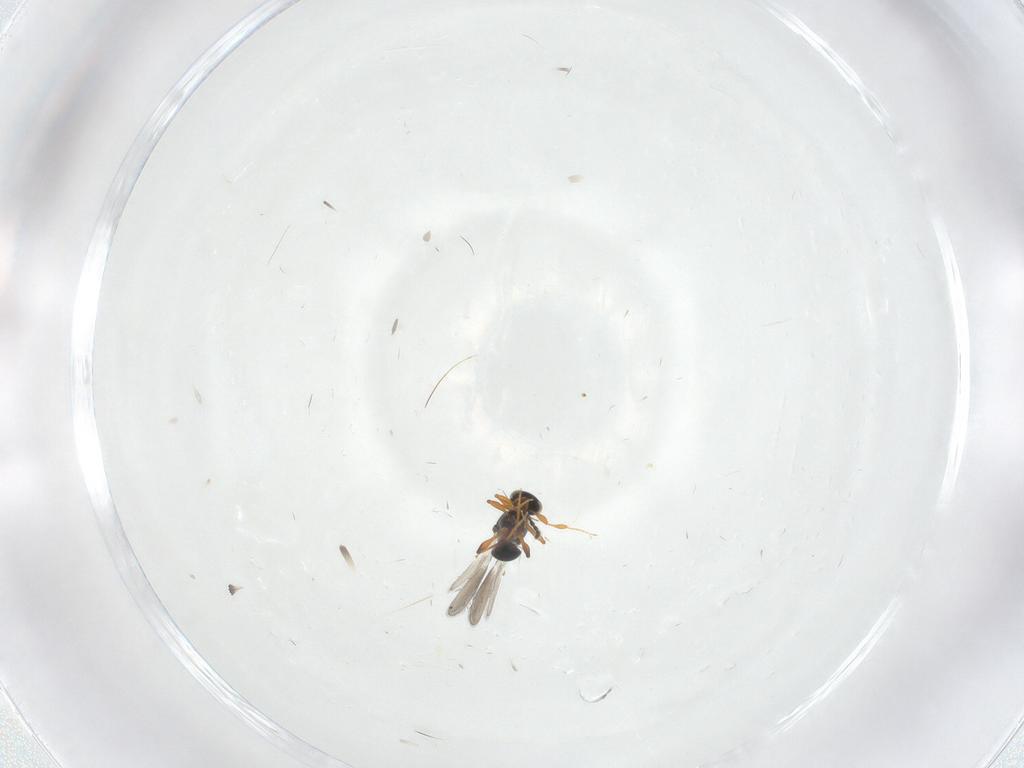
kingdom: Animalia
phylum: Arthropoda
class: Insecta
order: Hymenoptera
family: Platygastridae
